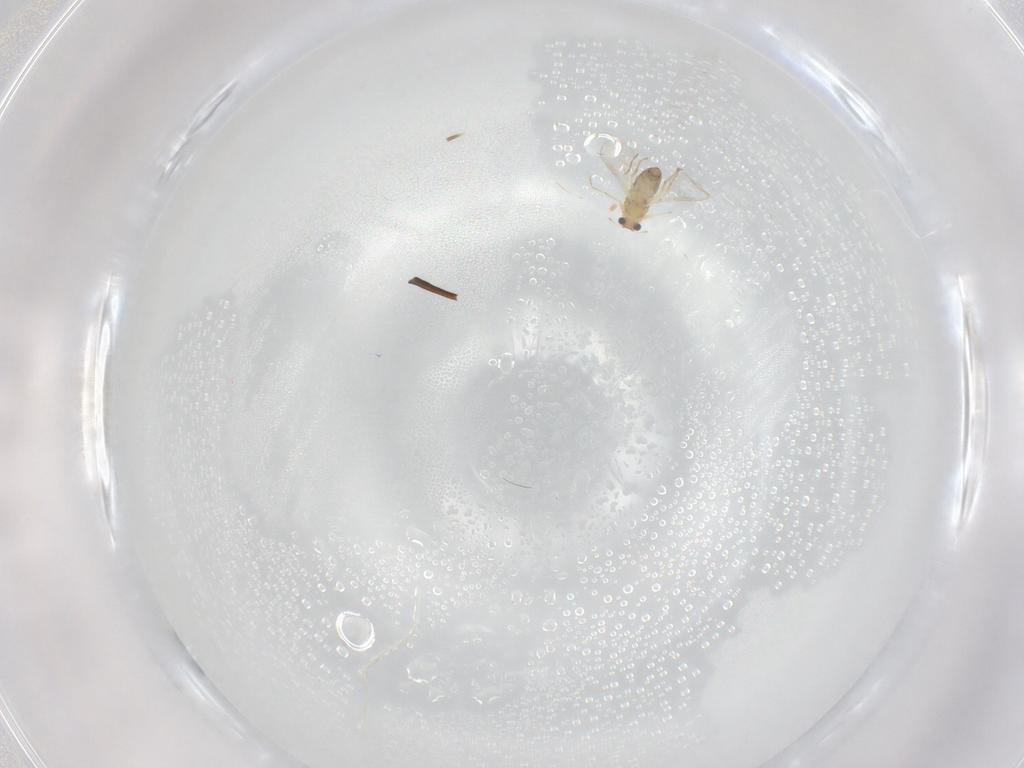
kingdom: Animalia
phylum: Arthropoda
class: Insecta
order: Diptera
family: Chironomidae
